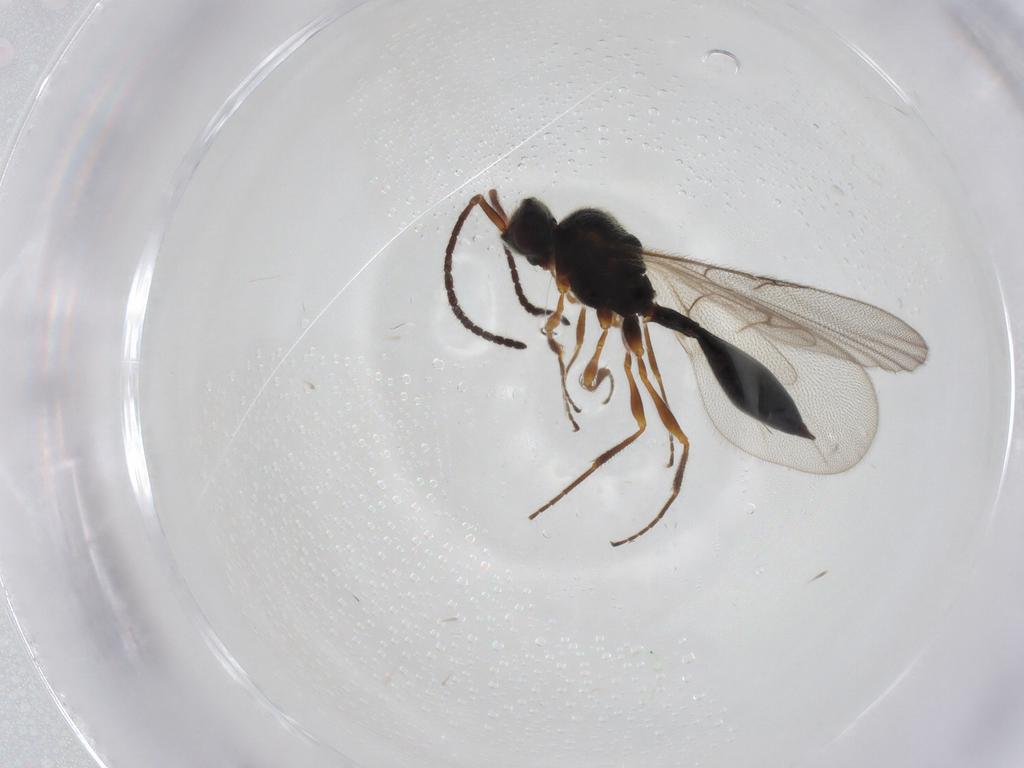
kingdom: Animalia
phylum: Arthropoda
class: Insecta
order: Hymenoptera
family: Diapriidae
